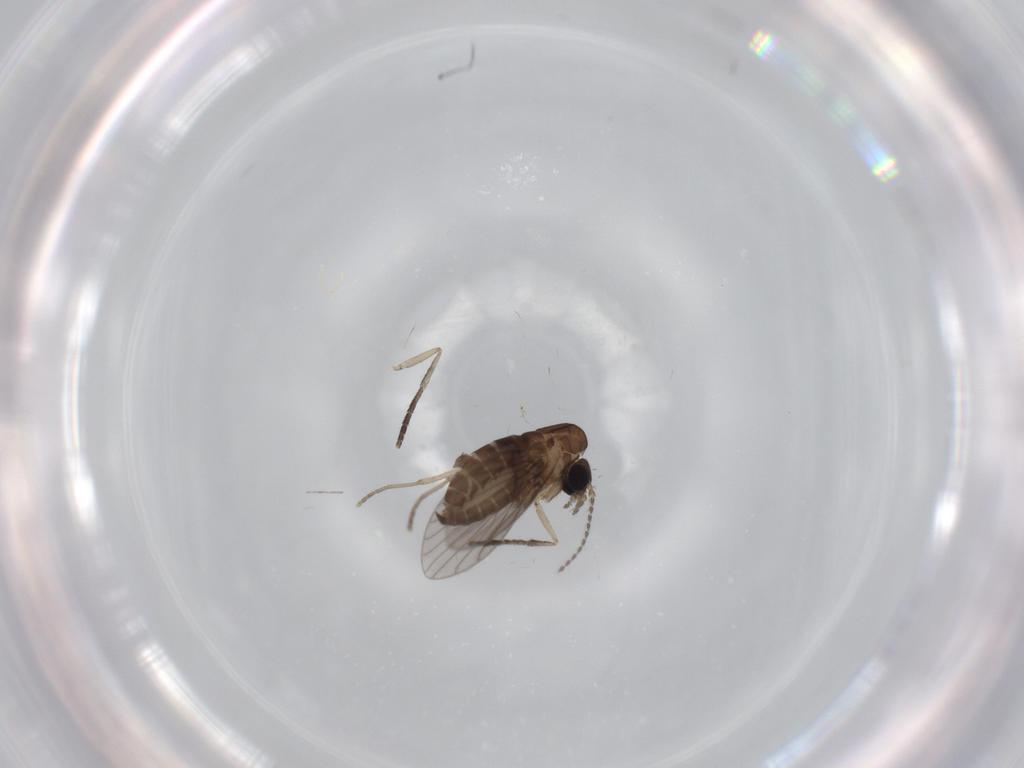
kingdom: Animalia
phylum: Arthropoda
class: Insecta
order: Diptera
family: Psychodidae
